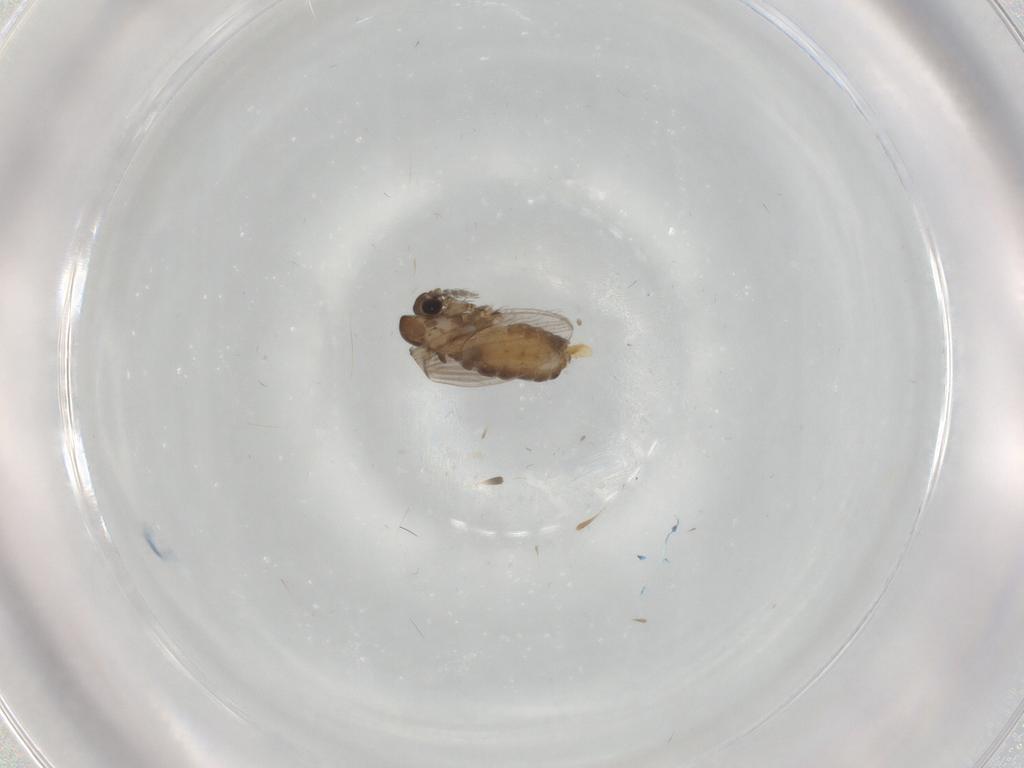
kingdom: Animalia
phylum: Arthropoda
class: Insecta
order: Diptera
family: Psychodidae
